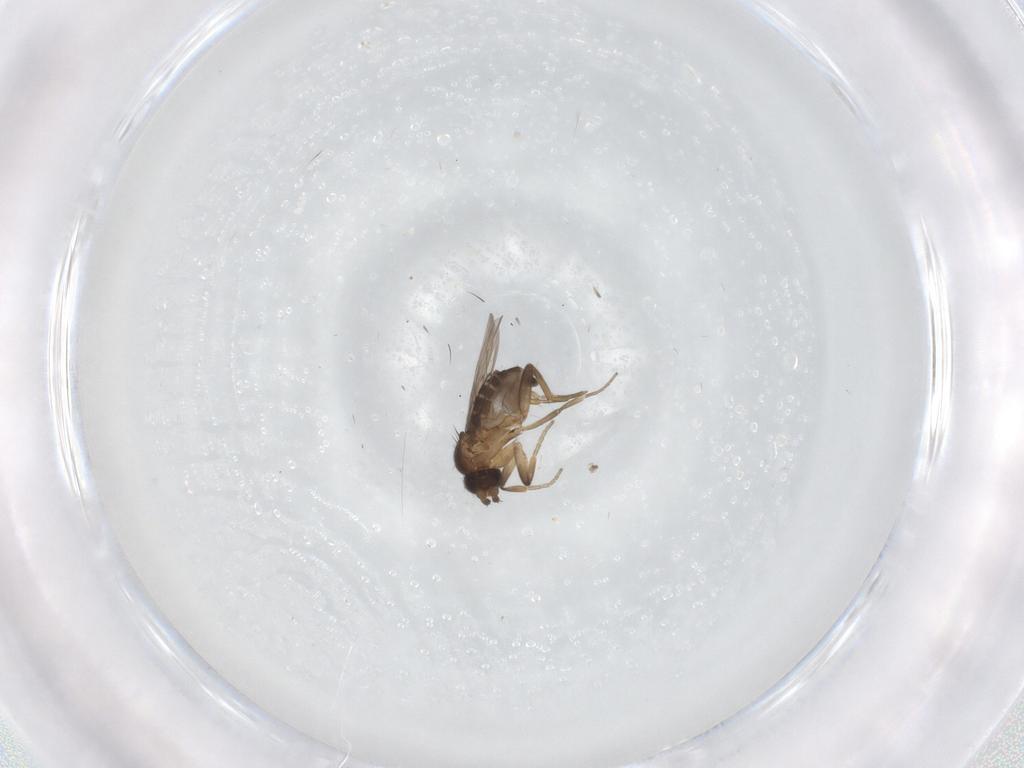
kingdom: Animalia
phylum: Arthropoda
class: Insecta
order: Diptera
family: Phoridae
